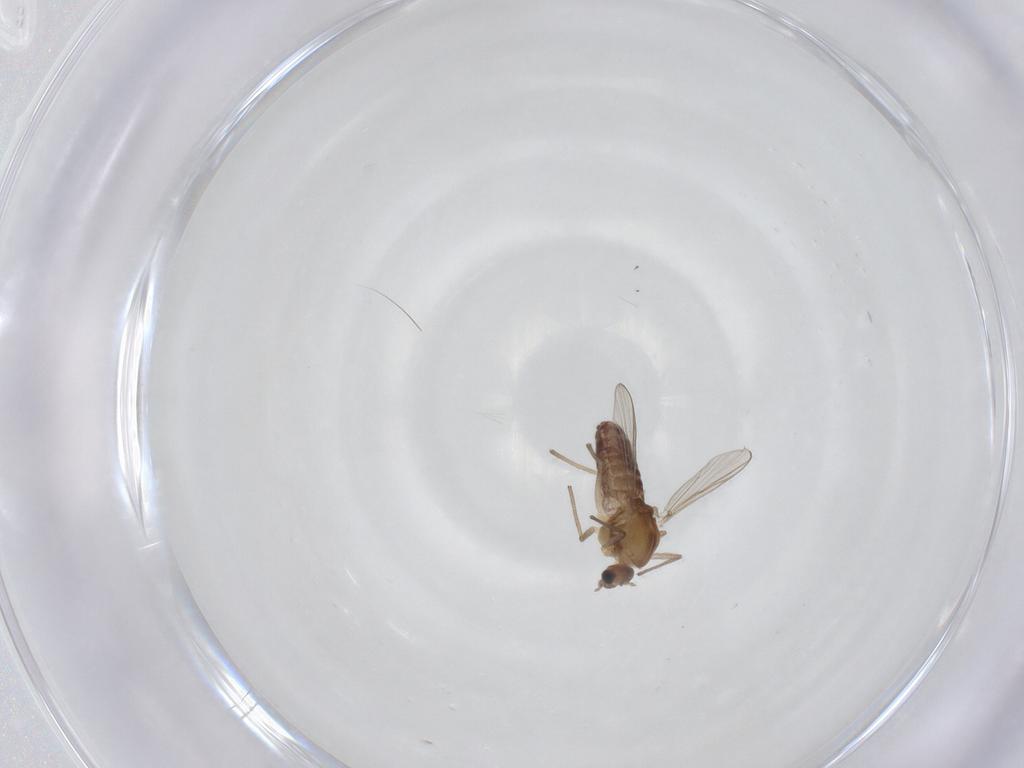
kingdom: Animalia
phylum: Arthropoda
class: Insecta
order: Diptera
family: Chironomidae
